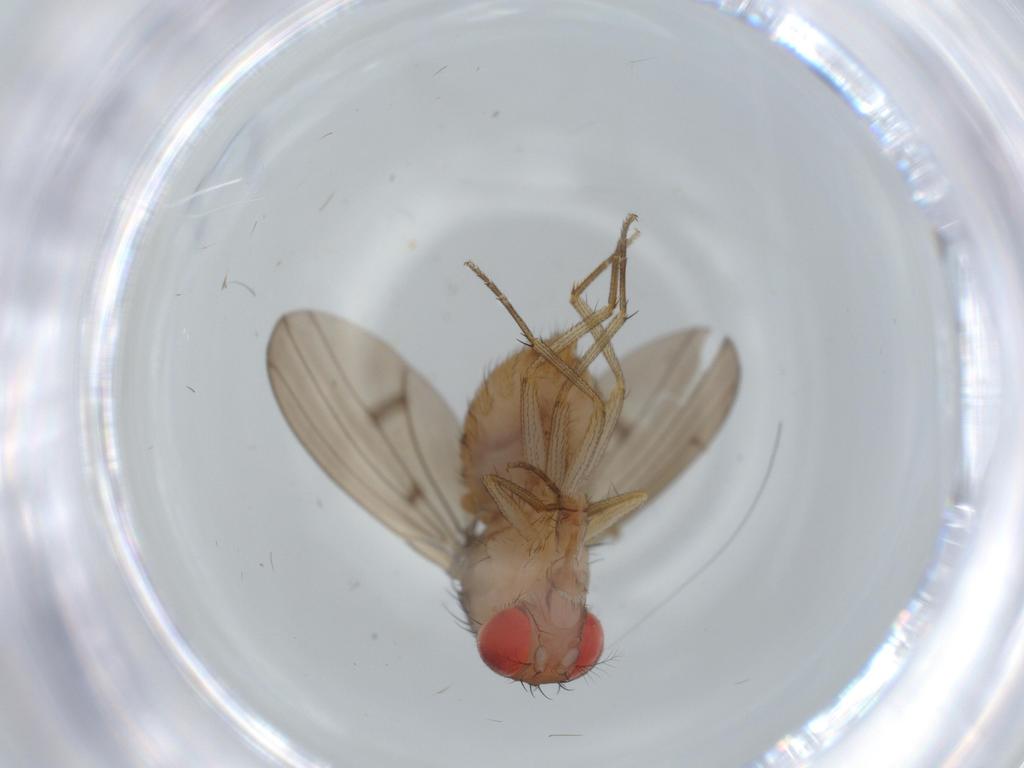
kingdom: Animalia
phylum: Arthropoda
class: Insecta
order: Diptera
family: Drosophilidae
